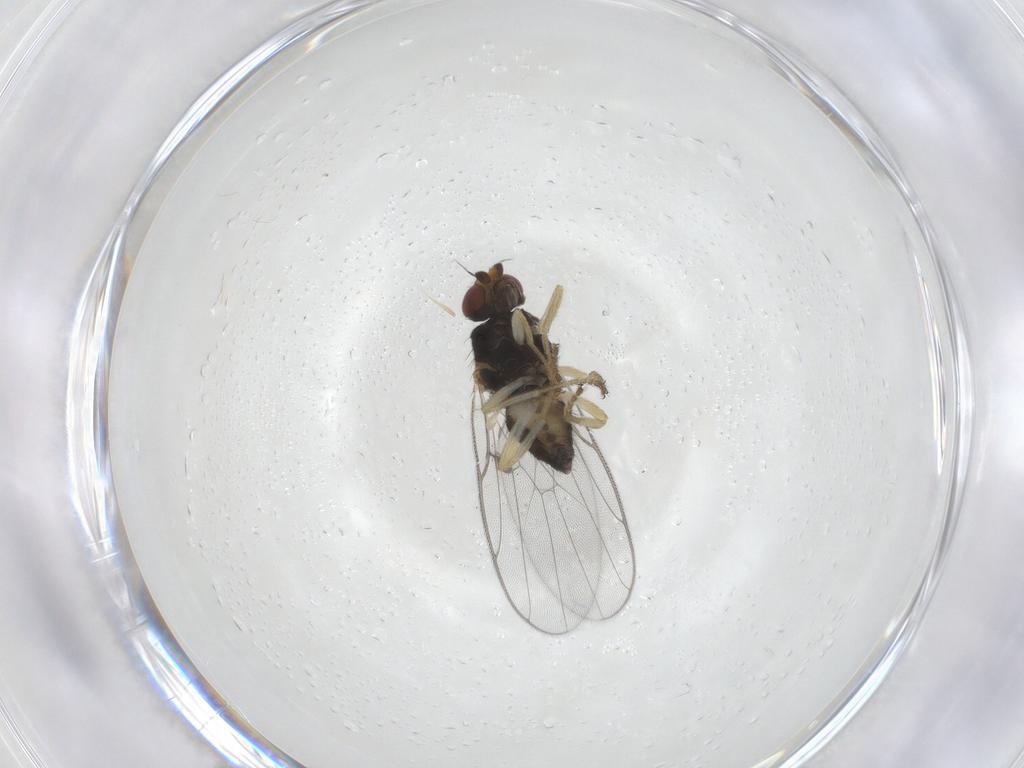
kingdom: Animalia
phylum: Arthropoda
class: Insecta
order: Diptera
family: Chloropidae
